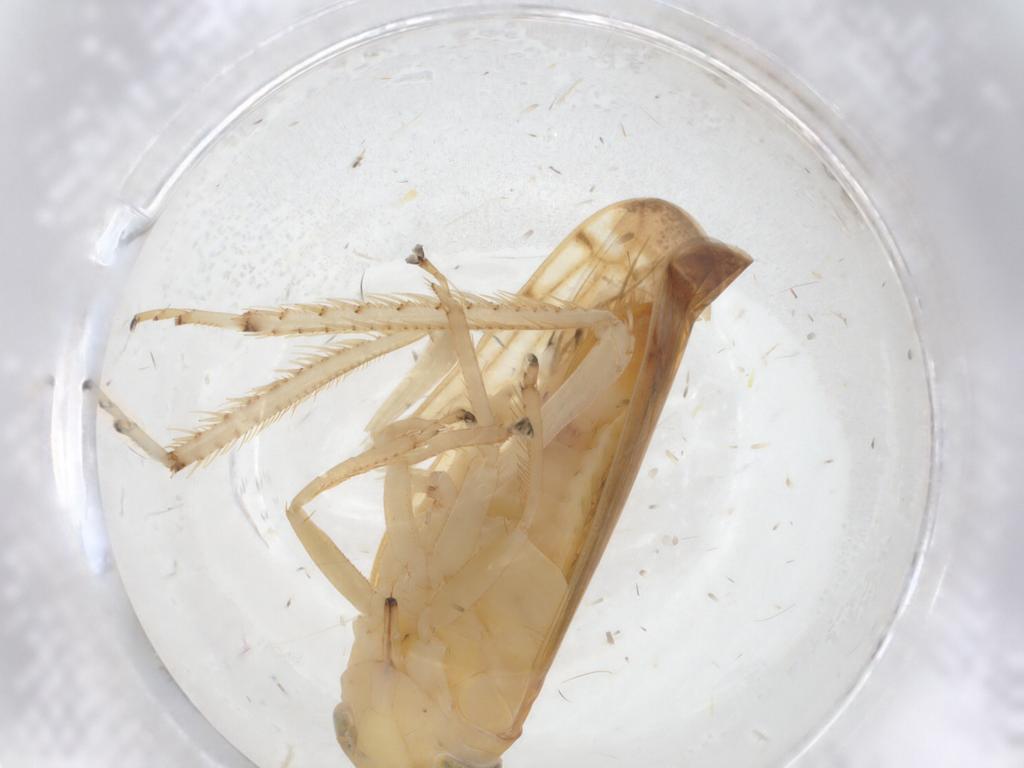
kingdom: Animalia
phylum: Arthropoda
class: Insecta
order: Hemiptera
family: Cicadellidae
